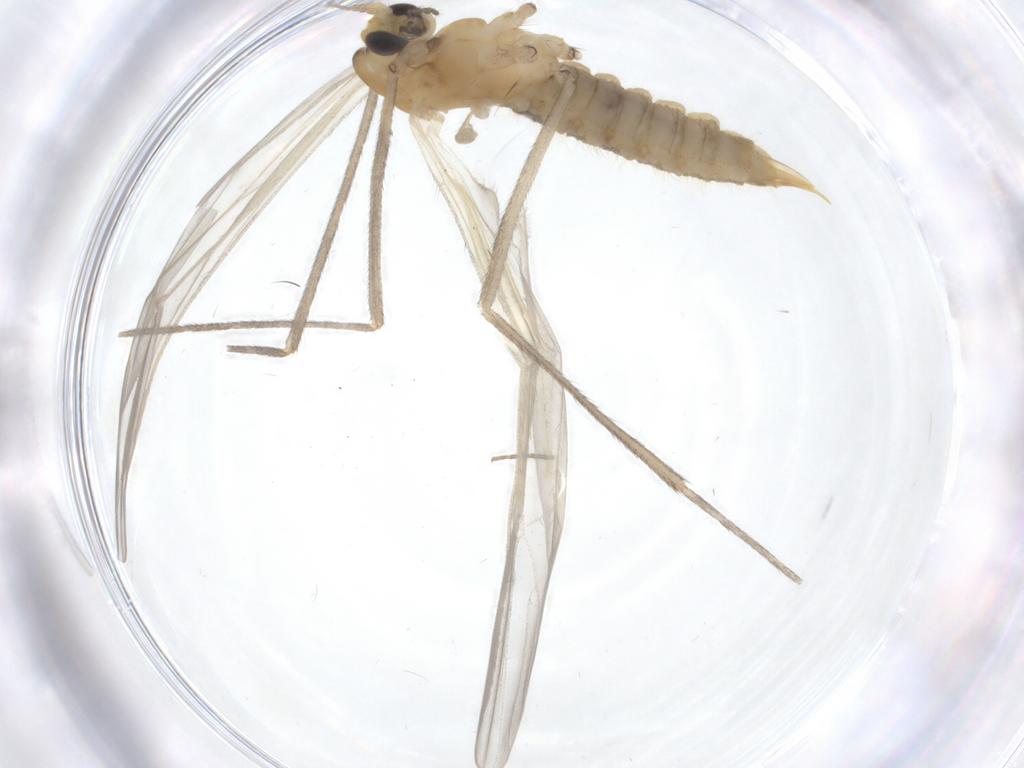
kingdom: Animalia
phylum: Arthropoda
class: Insecta
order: Diptera
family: Limoniidae
